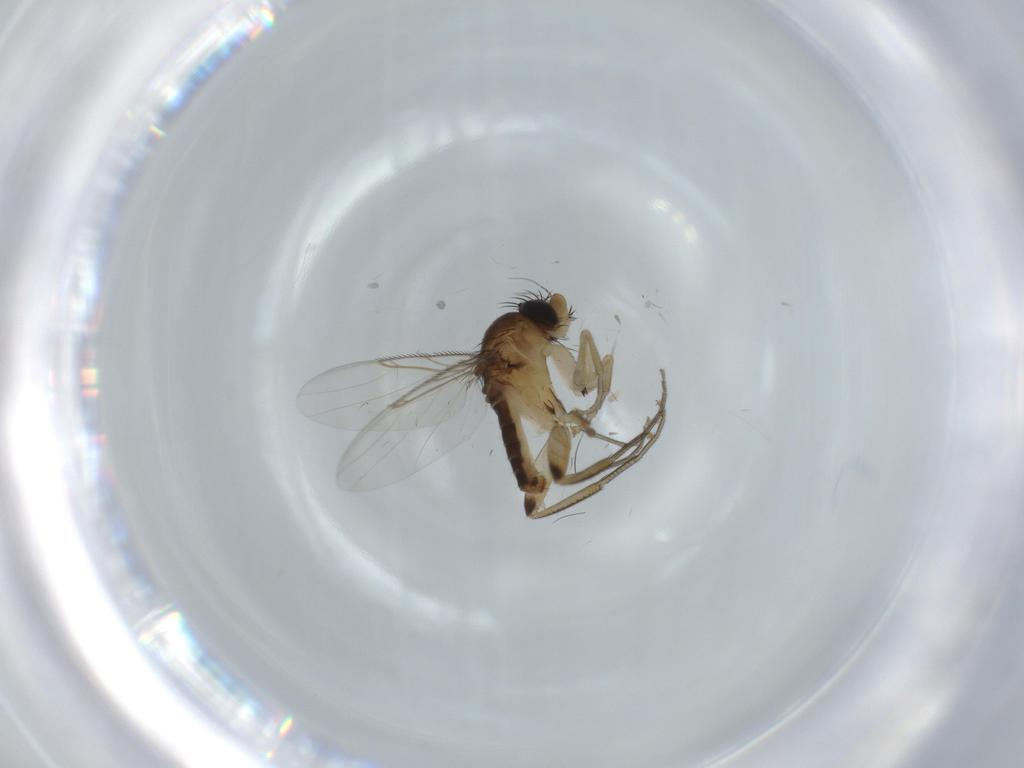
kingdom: Animalia
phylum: Arthropoda
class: Insecta
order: Diptera
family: Phoridae
